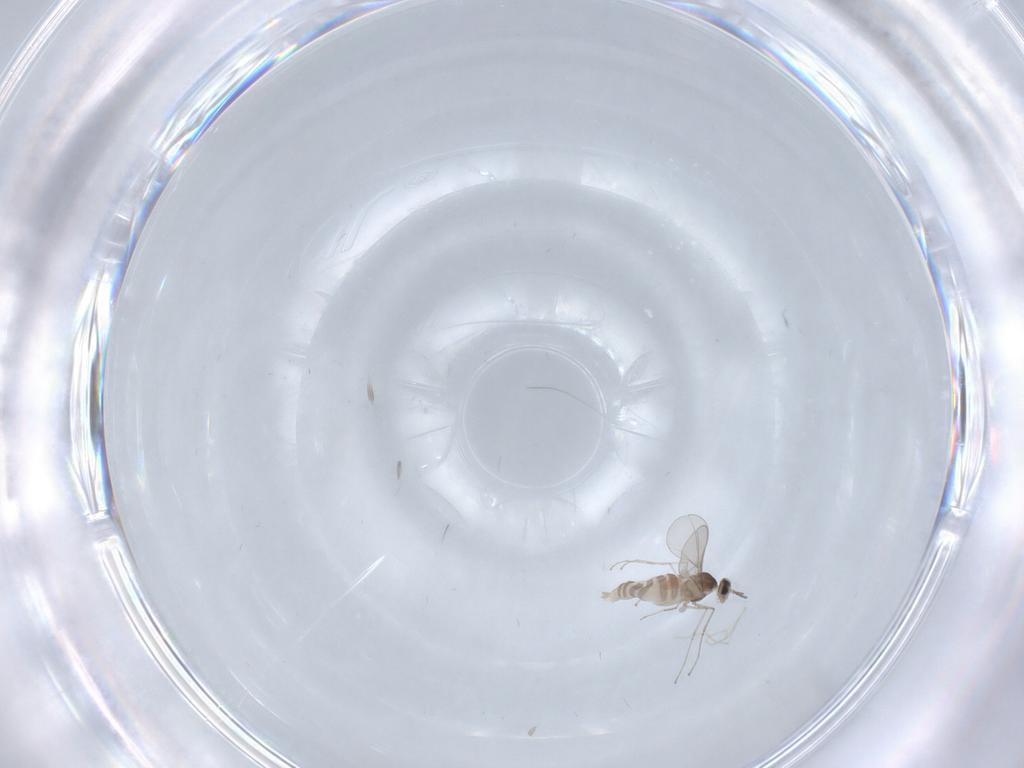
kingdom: Animalia
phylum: Arthropoda
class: Insecta
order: Diptera
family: Cecidomyiidae
